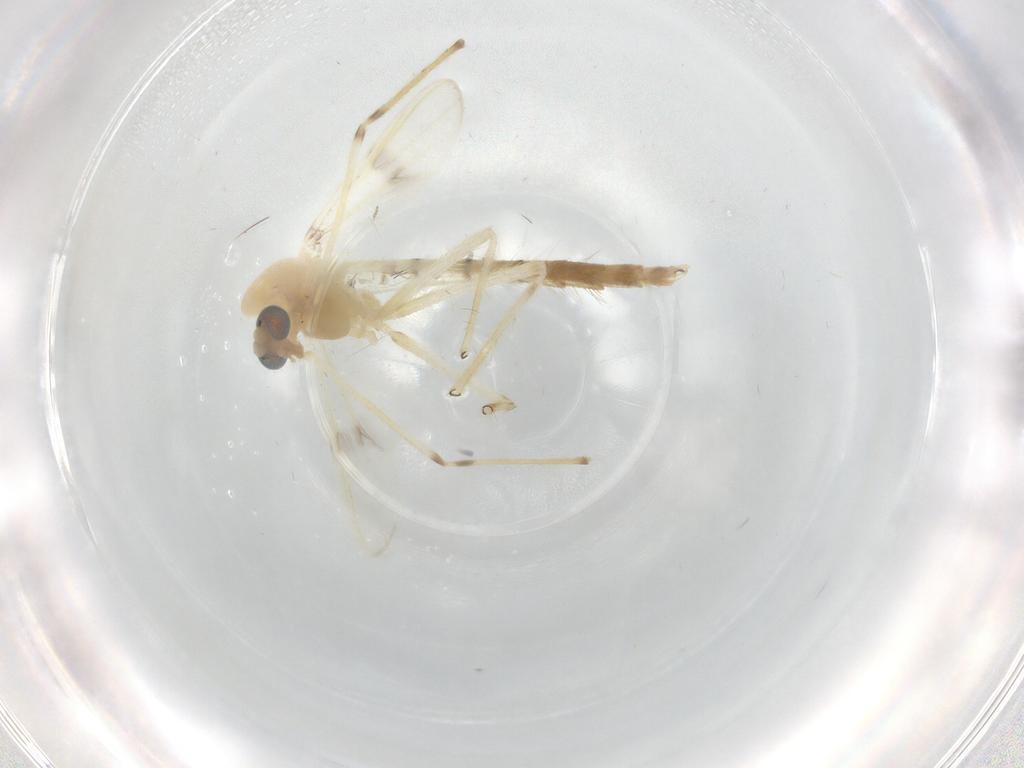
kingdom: Animalia
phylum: Arthropoda
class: Insecta
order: Diptera
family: Chironomidae
